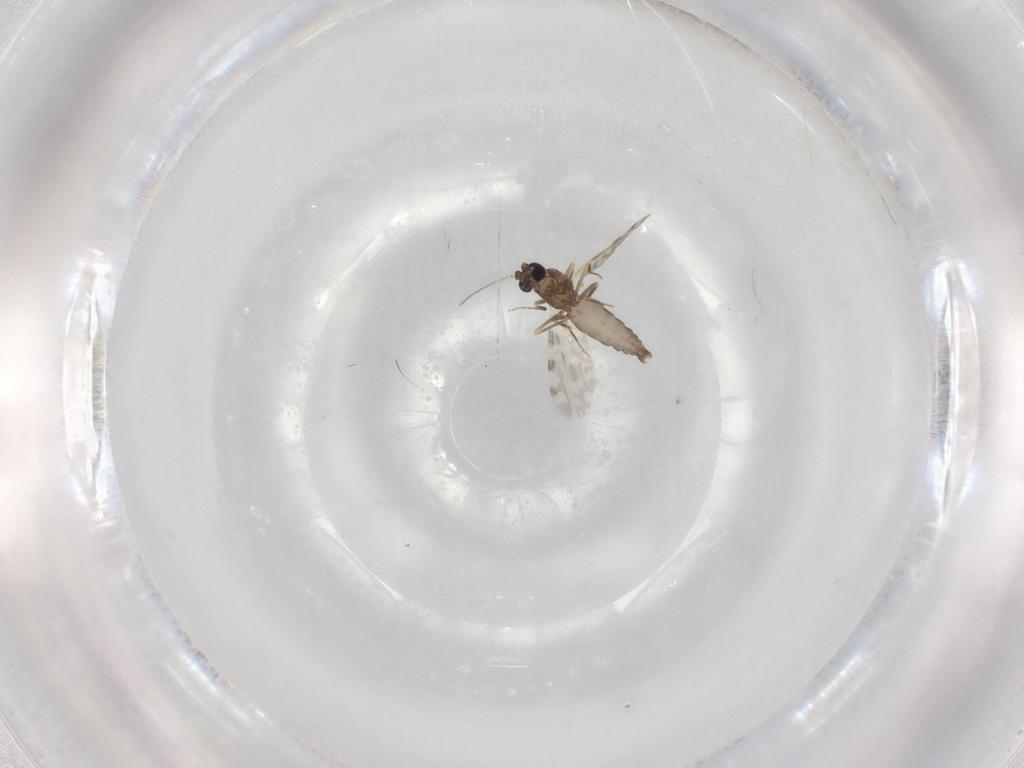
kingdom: Animalia
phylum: Arthropoda
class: Insecta
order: Diptera
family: Ceratopogonidae
